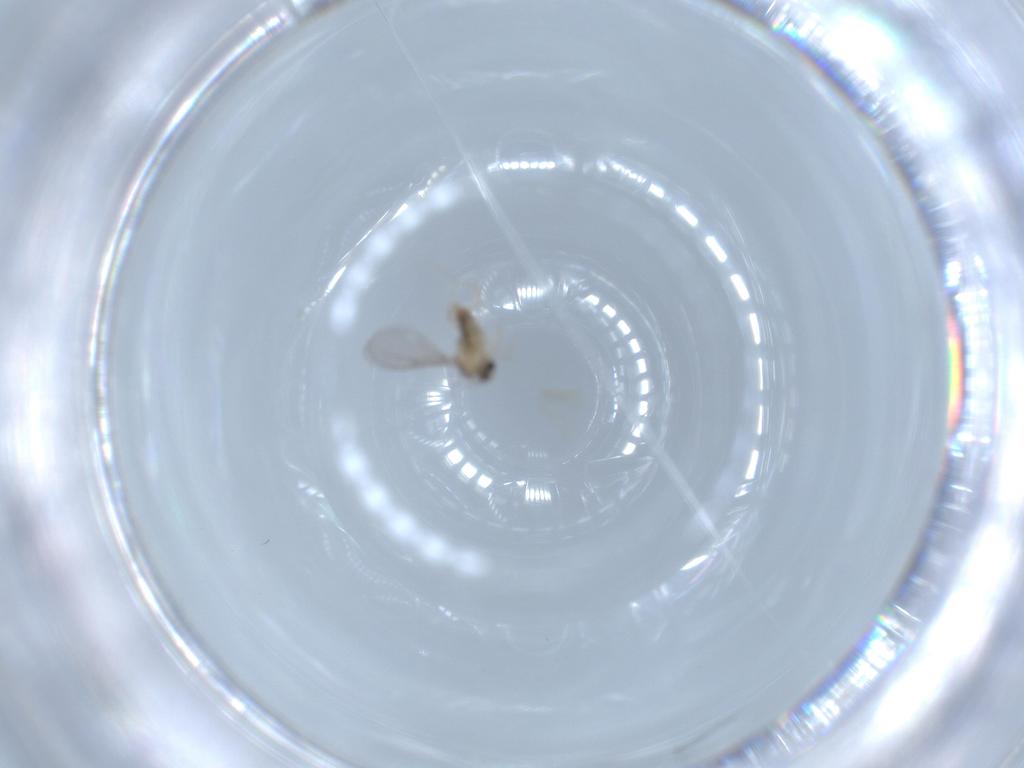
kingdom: Animalia
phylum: Arthropoda
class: Insecta
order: Diptera
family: Cecidomyiidae
